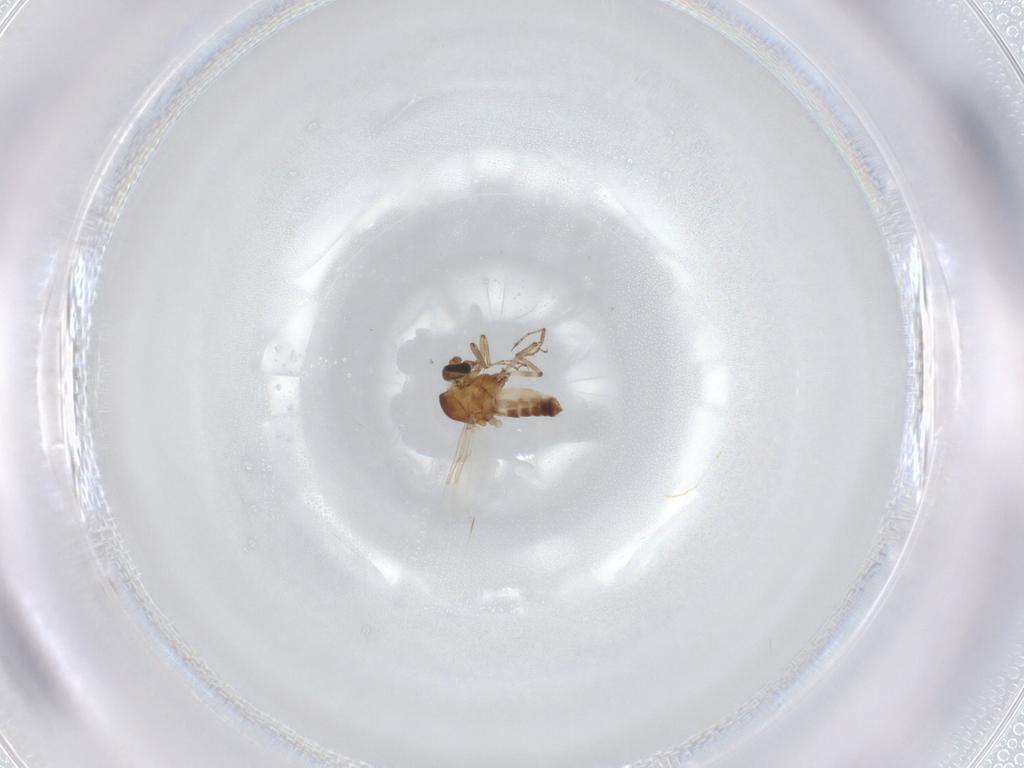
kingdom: Animalia
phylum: Arthropoda
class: Insecta
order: Diptera
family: Ceratopogonidae
